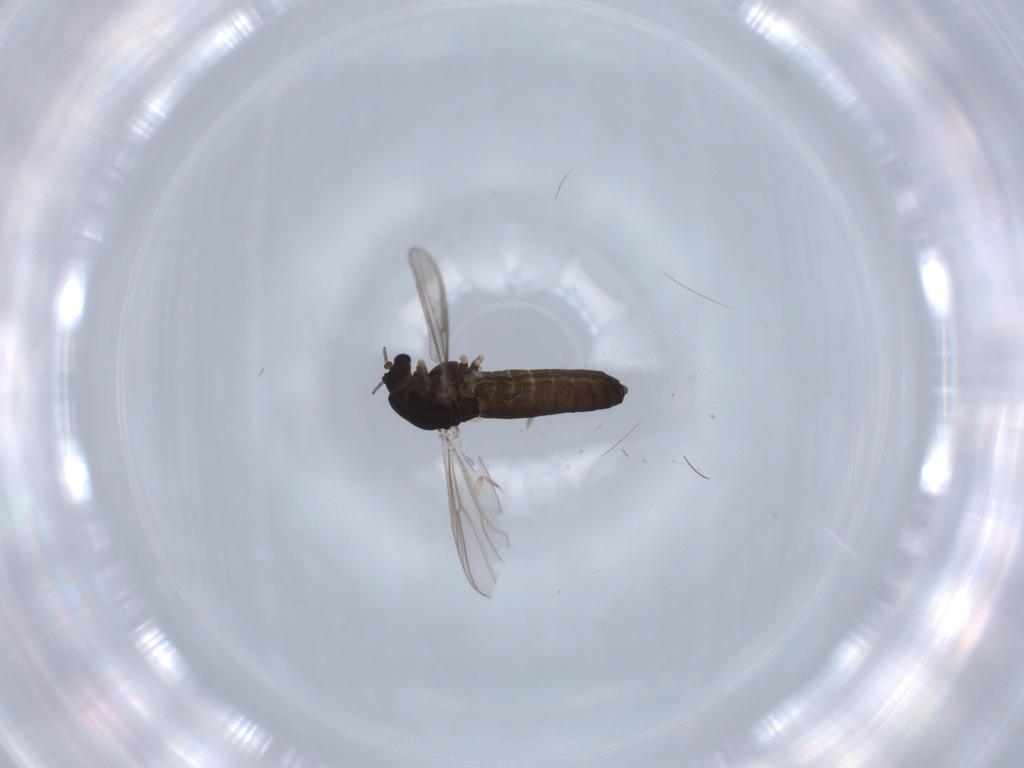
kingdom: Animalia
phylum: Arthropoda
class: Insecta
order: Diptera
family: Chironomidae
